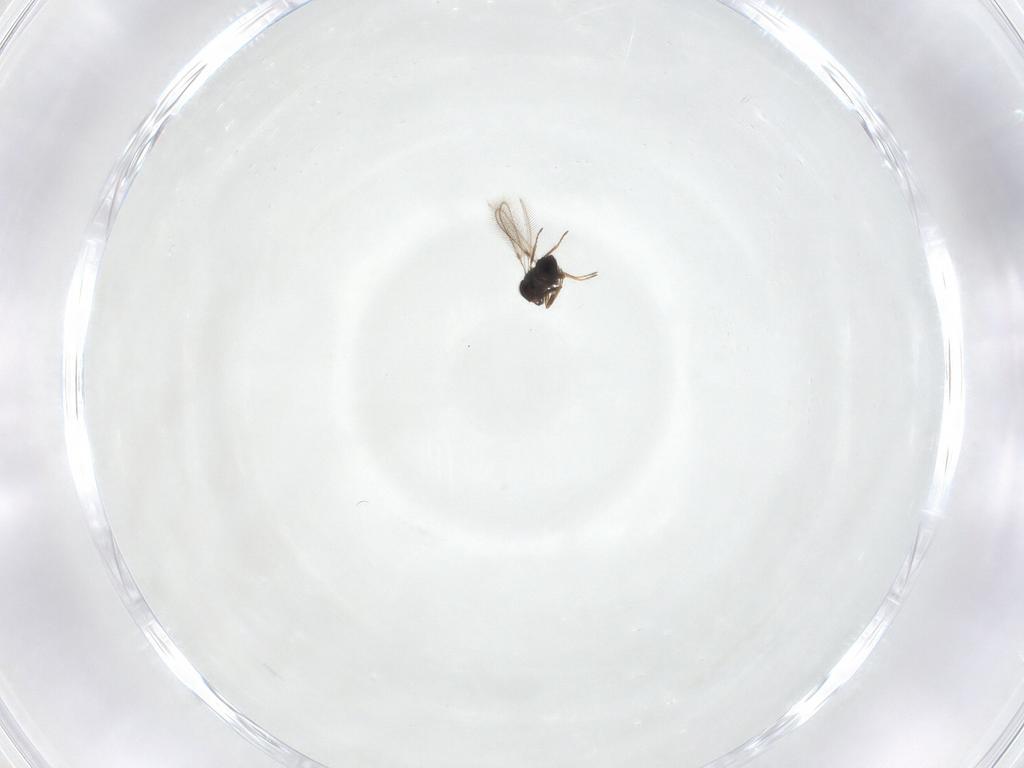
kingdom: Animalia
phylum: Arthropoda
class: Insecta
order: Hymenoptera
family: Mymaridae
